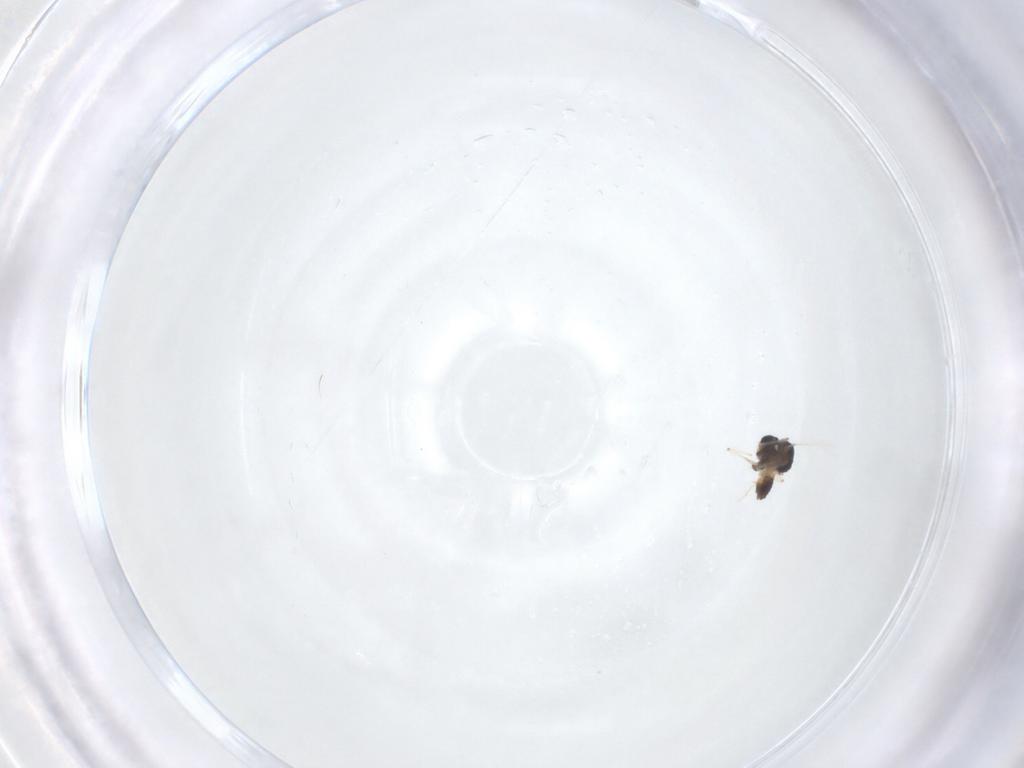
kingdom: Animalia
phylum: Arthropoda
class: Insecta
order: Diptera
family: Chironomidae
